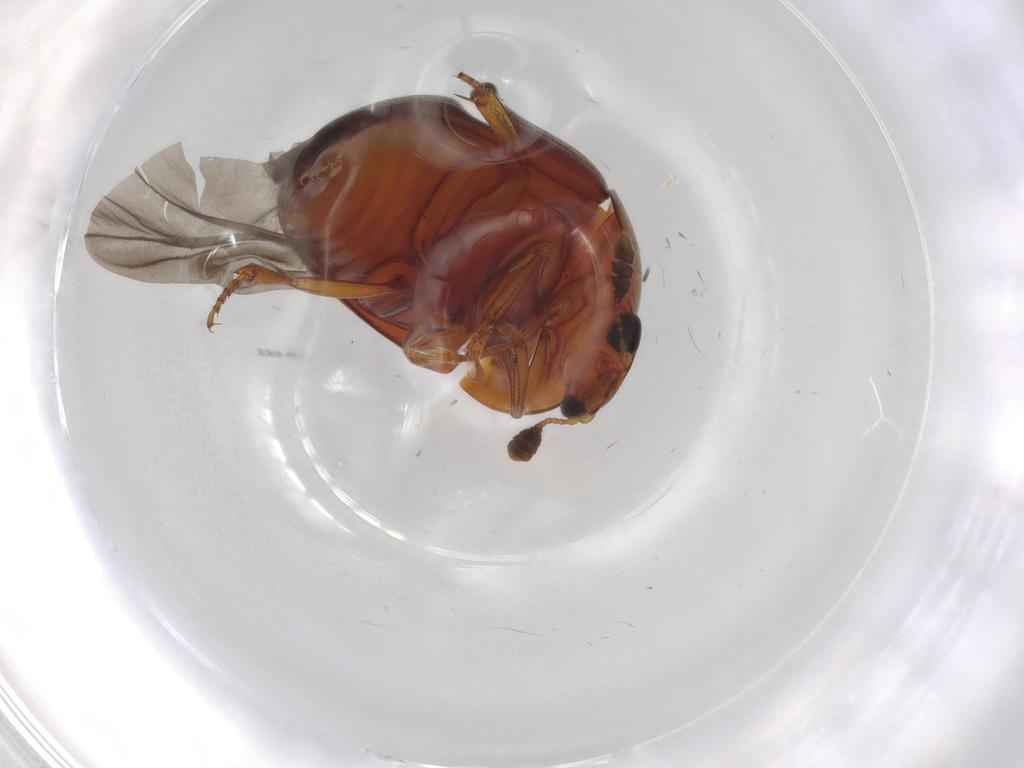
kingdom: Animalia
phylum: Arthropoda
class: Insecta
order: Coleoptera
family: Nitidulidae
